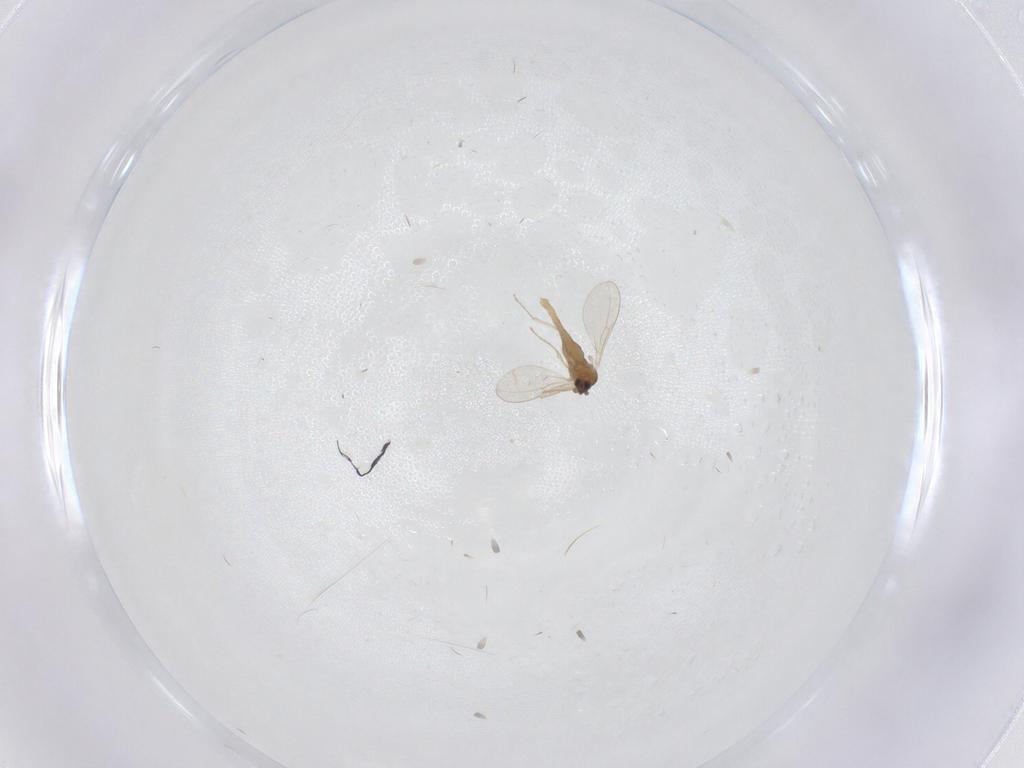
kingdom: Animalia
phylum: Arthropoda
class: Insecta
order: Diptera
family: Cecidomyiidae
